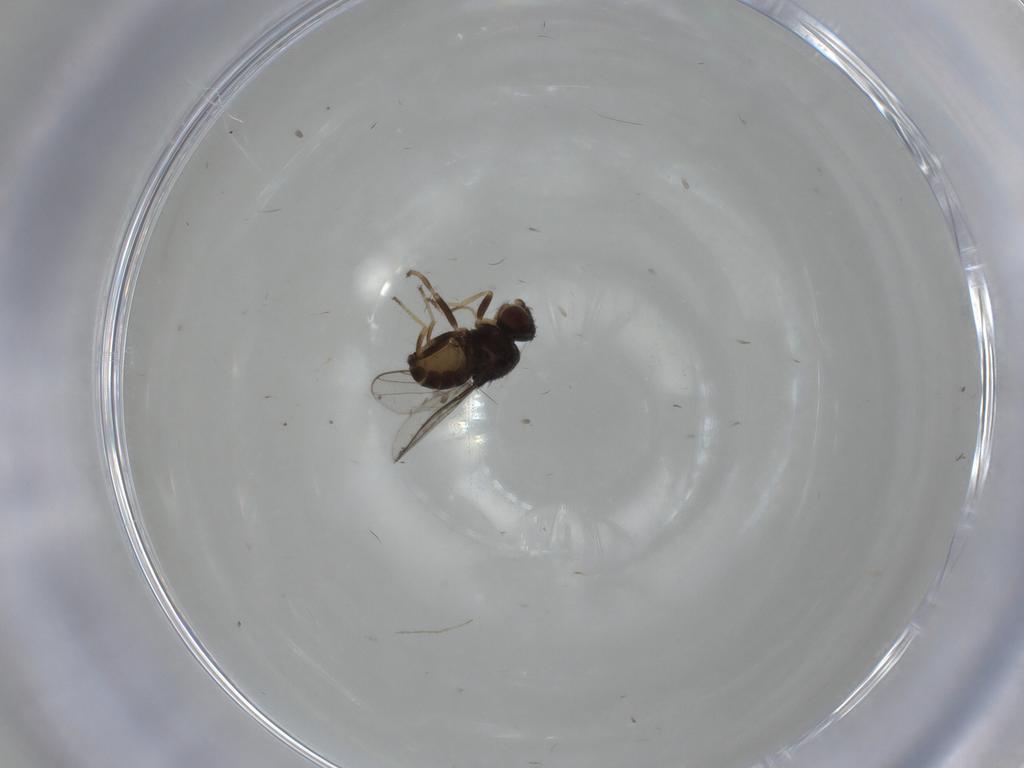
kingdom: Animalia
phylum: Arthropoda
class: Insecta
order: Diptera
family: Chloropidae
